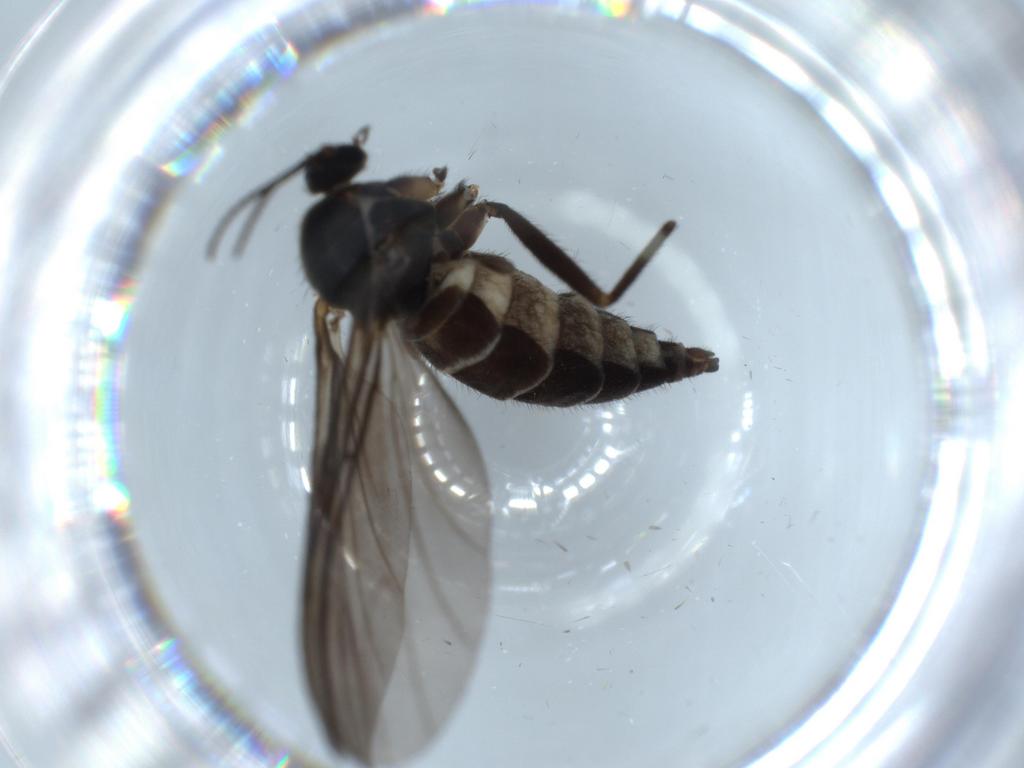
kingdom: Animalia
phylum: Arthropoda
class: Insecta
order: Diptera
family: Sciaridae
